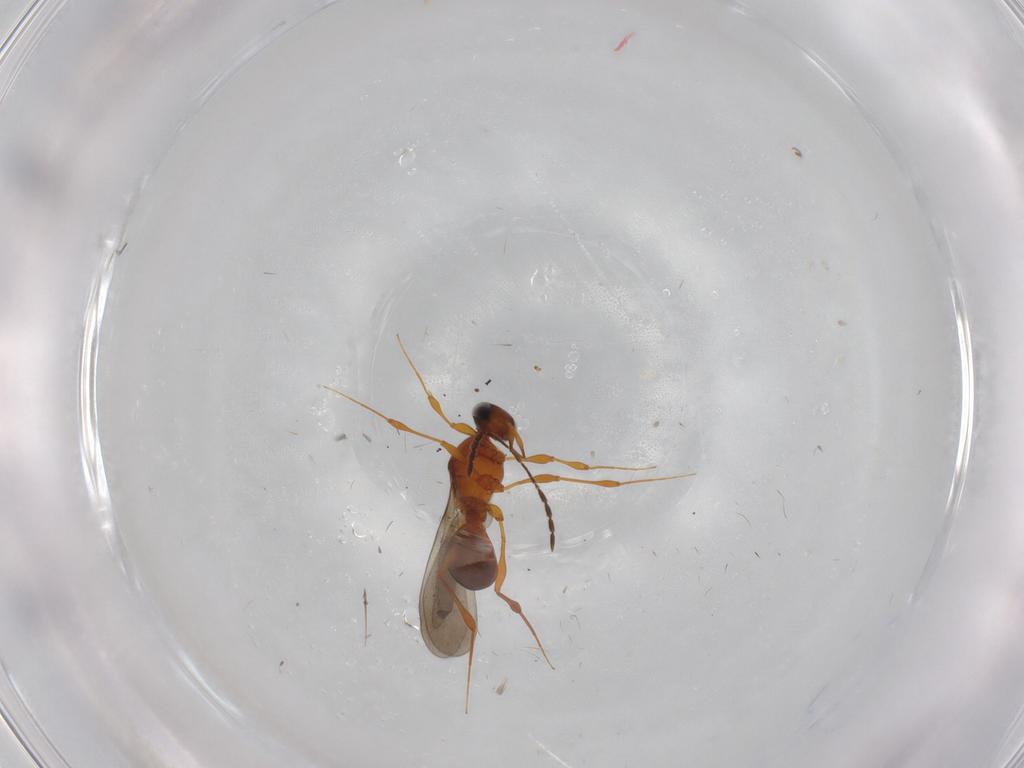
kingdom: Animalia
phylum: Arthropoda
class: Insecta
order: Hymenoptera
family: Platygastridae
